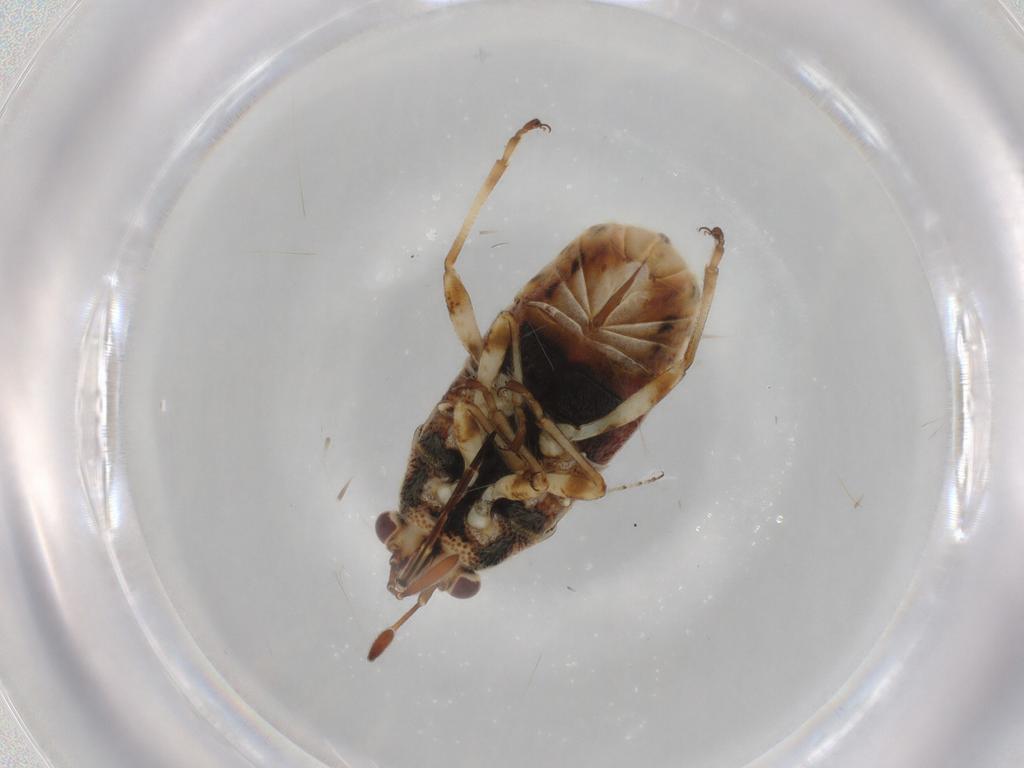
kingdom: Animalia
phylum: Arthropoda
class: Insecta
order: Hemiptera
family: Lygaeidae
